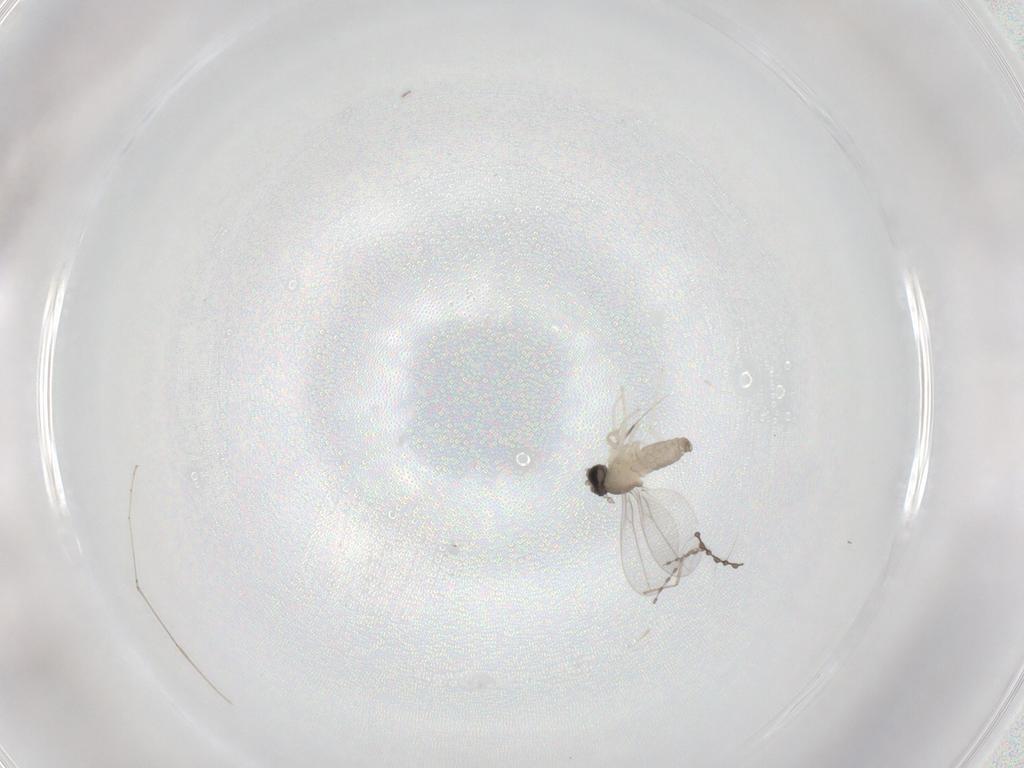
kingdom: Animalia
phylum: Arthropoda
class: Insecta
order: Diptera
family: Cecidomyiidae
